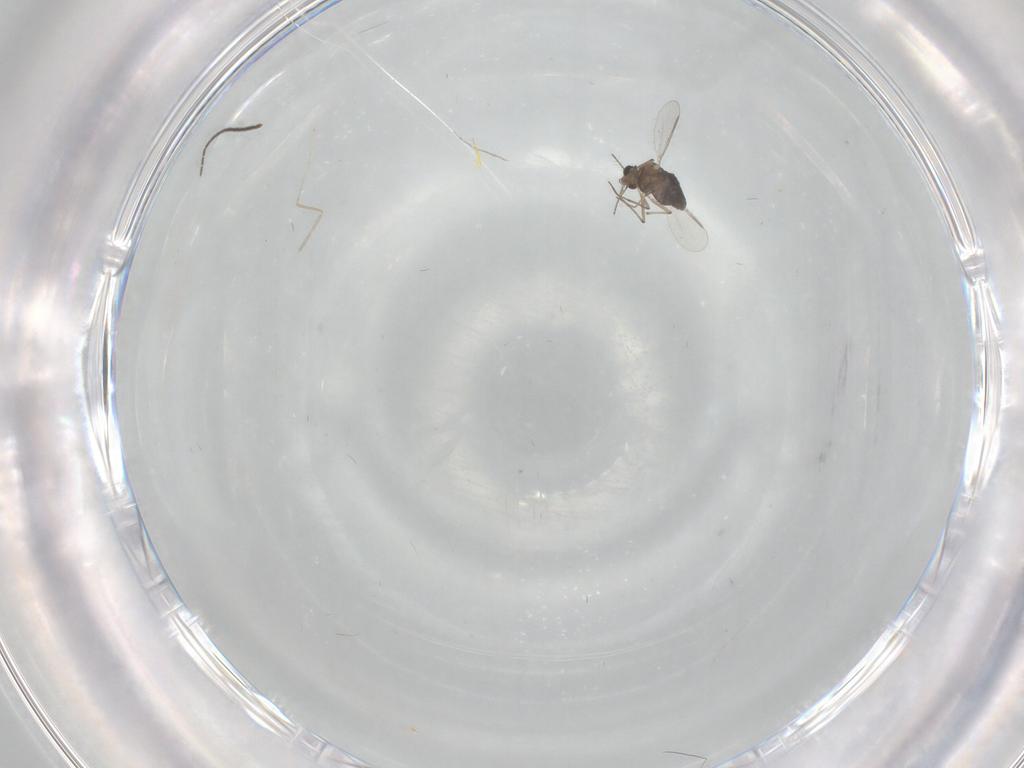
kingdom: Animalia
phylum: Arthropoda
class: Insecta
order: Diptera
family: Chironomidae
